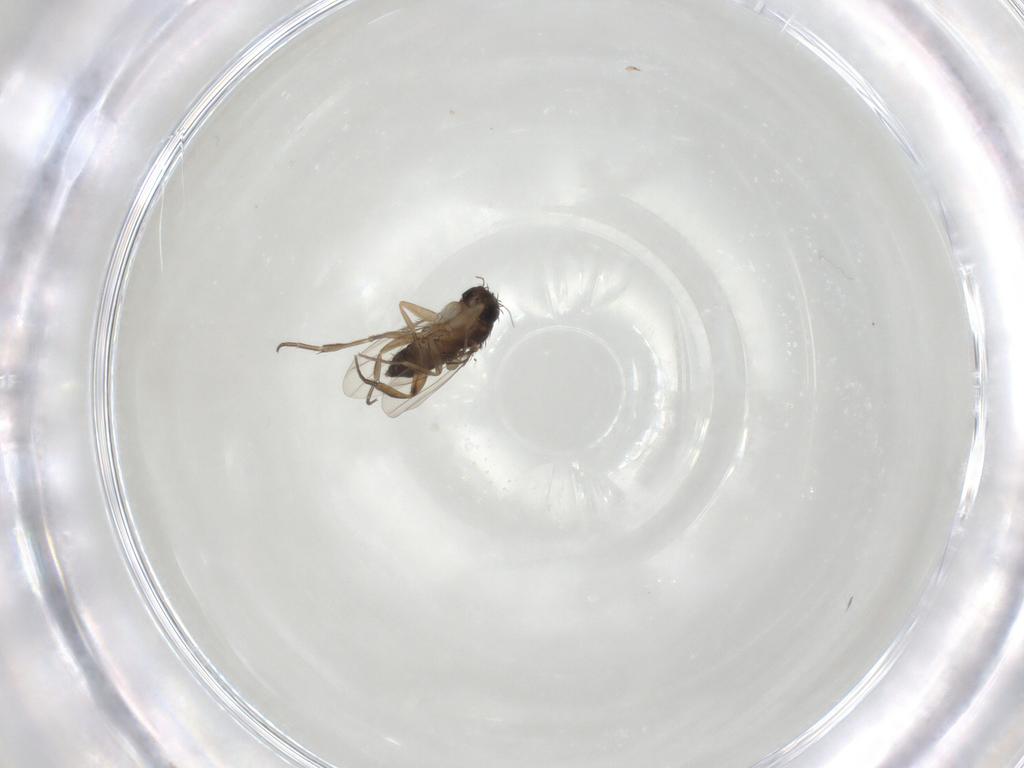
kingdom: Animalia
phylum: Arthropoda
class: Insecta
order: Diptera
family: Phoridae
